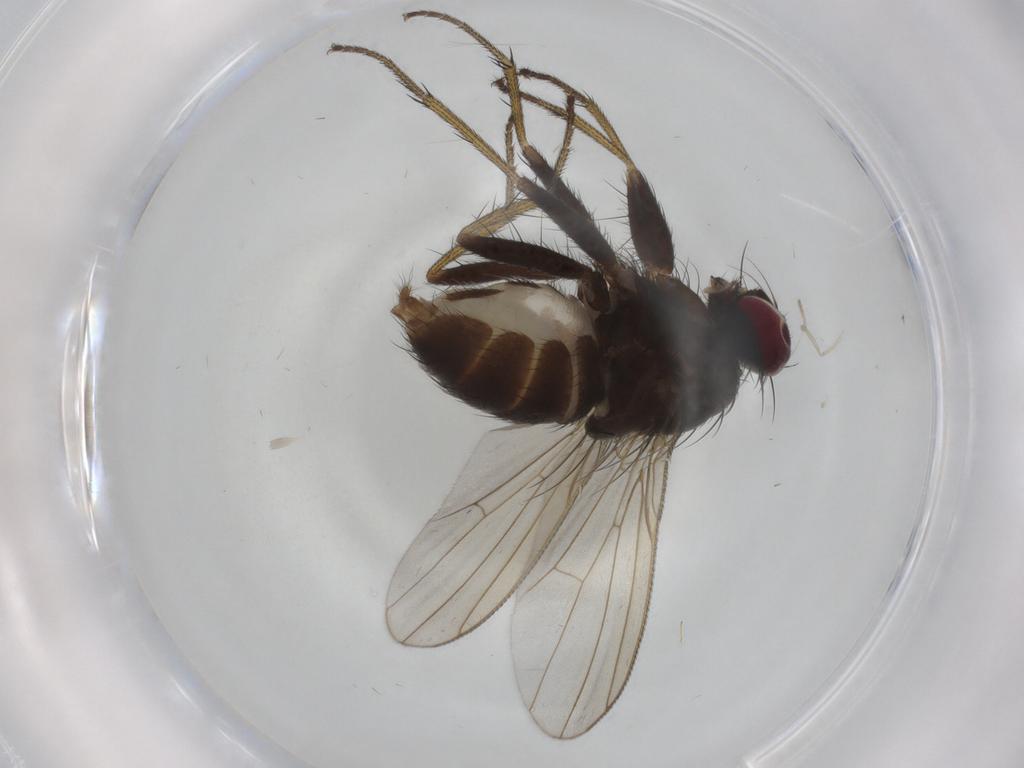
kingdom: Animalia
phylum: Arthropoda
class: Insecta
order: Diptera
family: Muscidae
